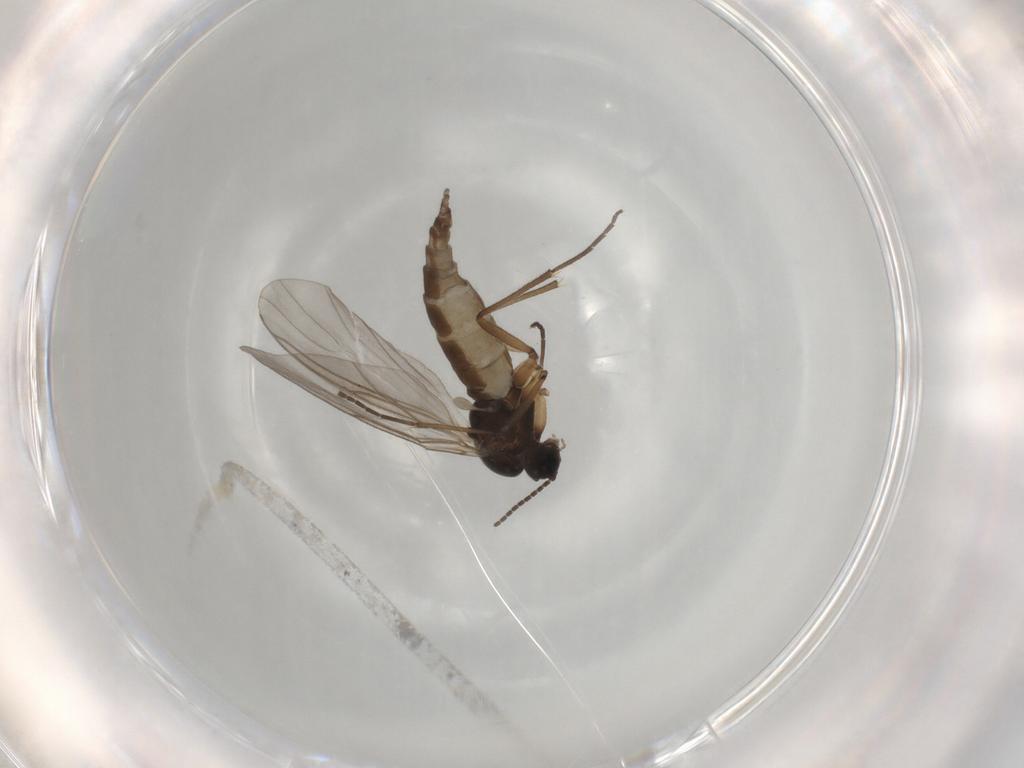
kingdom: Animalia
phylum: Arthropoda
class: Insecta
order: Diptera
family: Sciaridae
